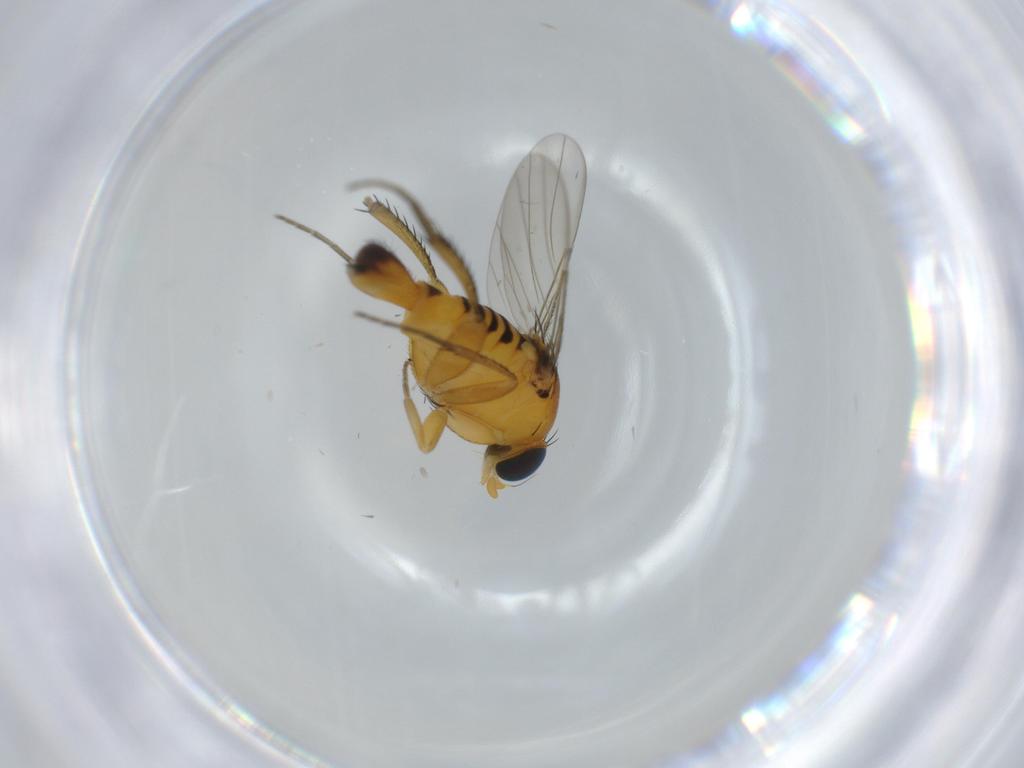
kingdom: Animalia
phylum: Arthropoda
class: Insecta
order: Diptera
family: Phoridae
